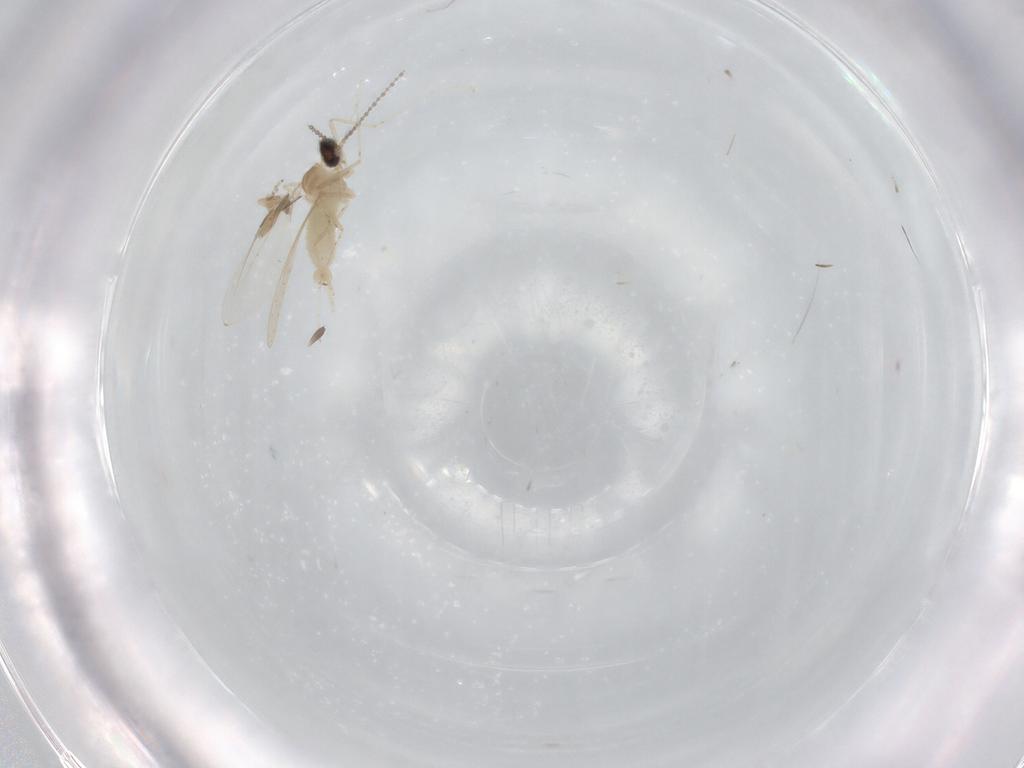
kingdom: Animalia
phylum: Arthropoda
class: Insecta
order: Diptera
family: Cecidomyiidae
